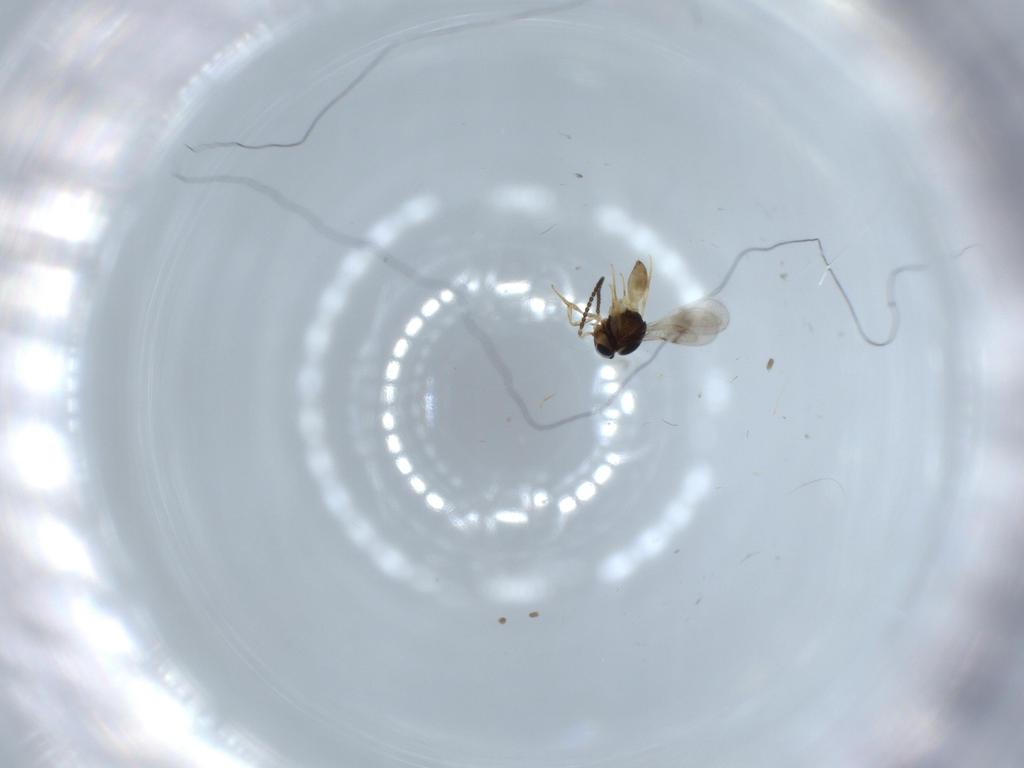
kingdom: Animalia
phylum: Arthropoda
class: Insecta
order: Hymenoptera
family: Scelionidae
